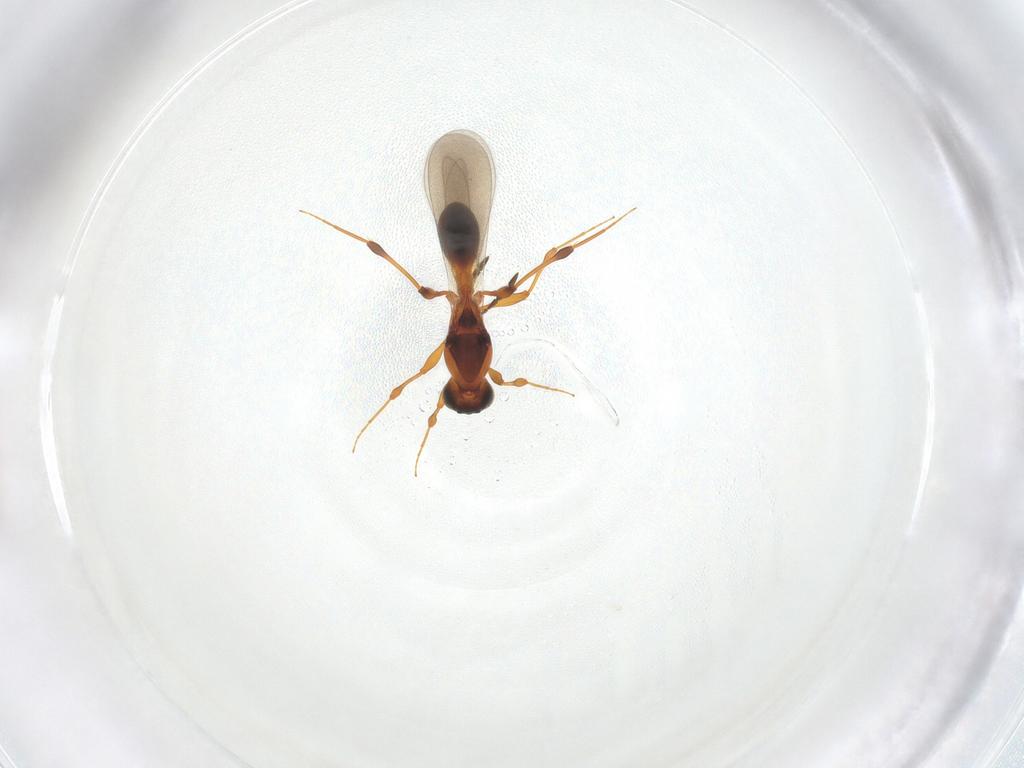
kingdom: Animalia
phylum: Arthropoda
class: Insecta
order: Hymenoptera
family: Platygastridae
